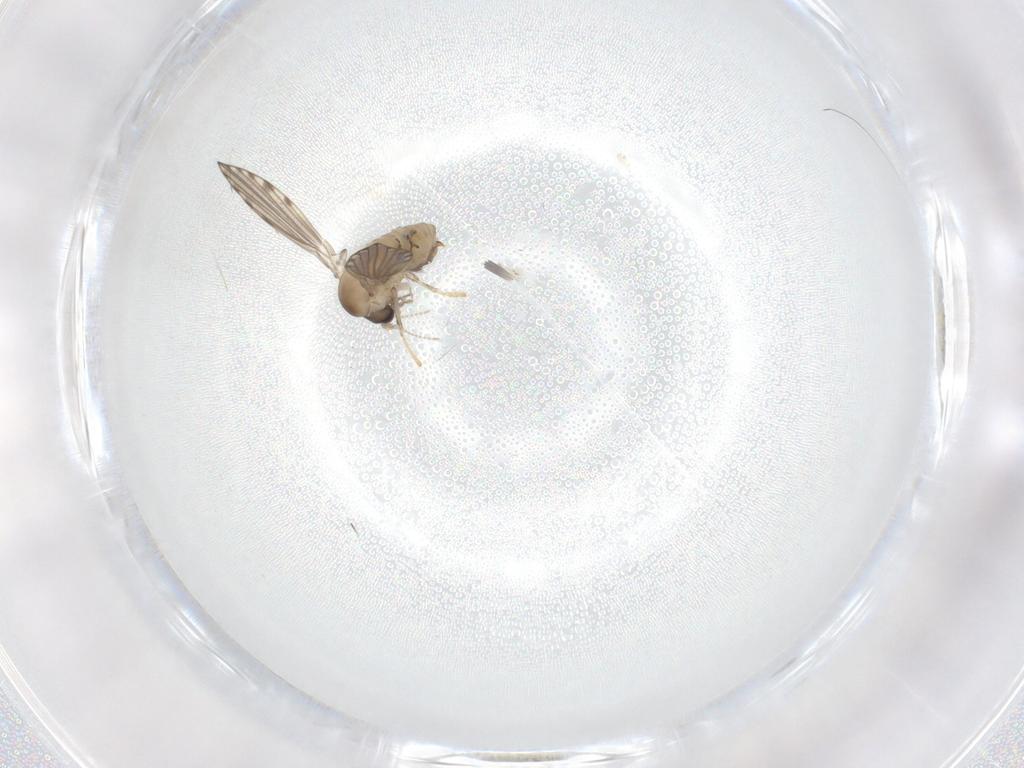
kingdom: Animalia
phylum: Arthropoda
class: Insecta
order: Diptera
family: Psychodidae
